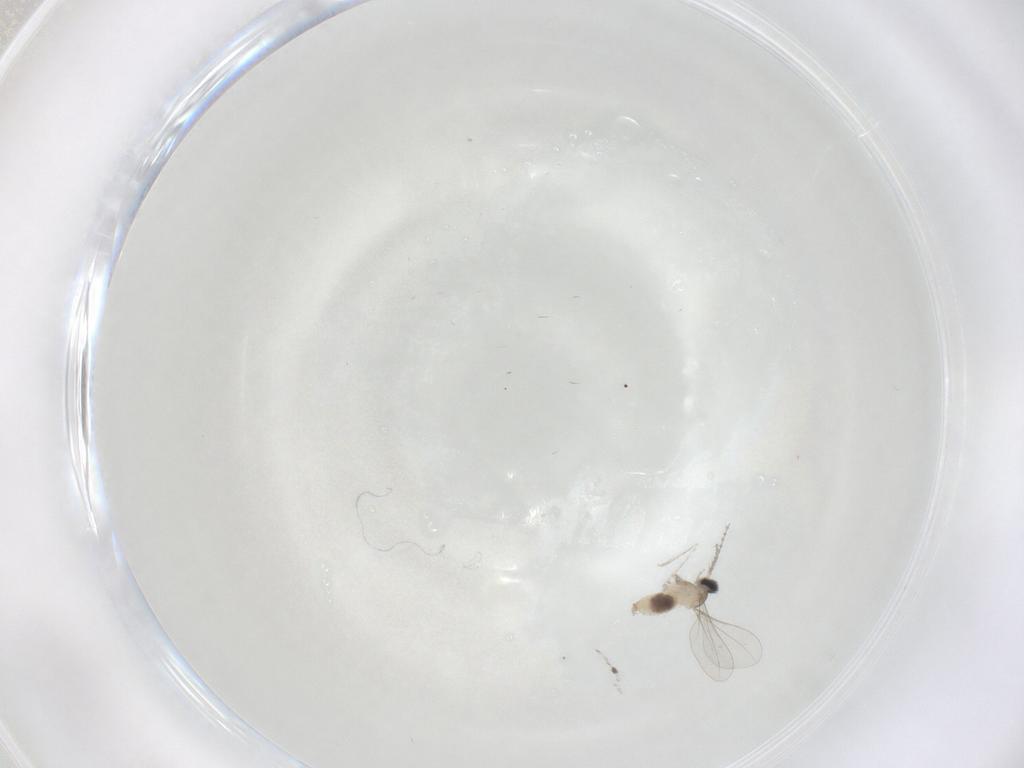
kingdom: Animalia
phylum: Arthropoda
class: Insecta
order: Diptera
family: Cecidomyiidae
